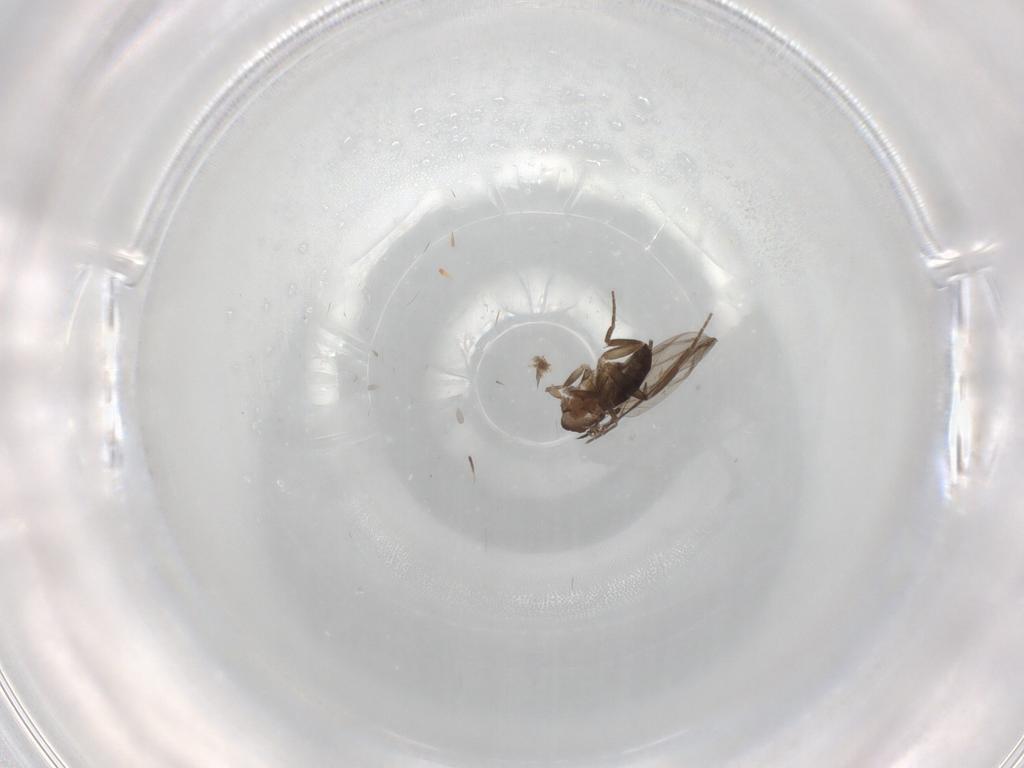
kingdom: Animalia
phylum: Arthropoda
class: Insecta
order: Diptera
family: Cecidomyiidae
